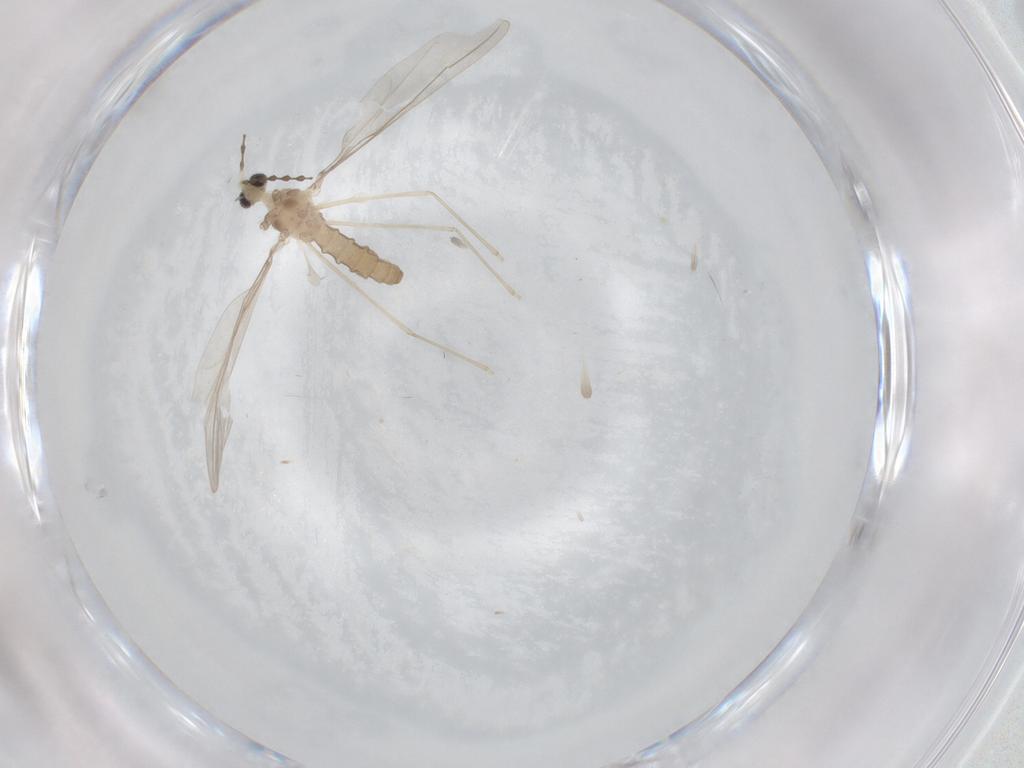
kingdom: Animalia
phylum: Arthropoda
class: Insecta
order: Diptera
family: Cecidomyiidae
